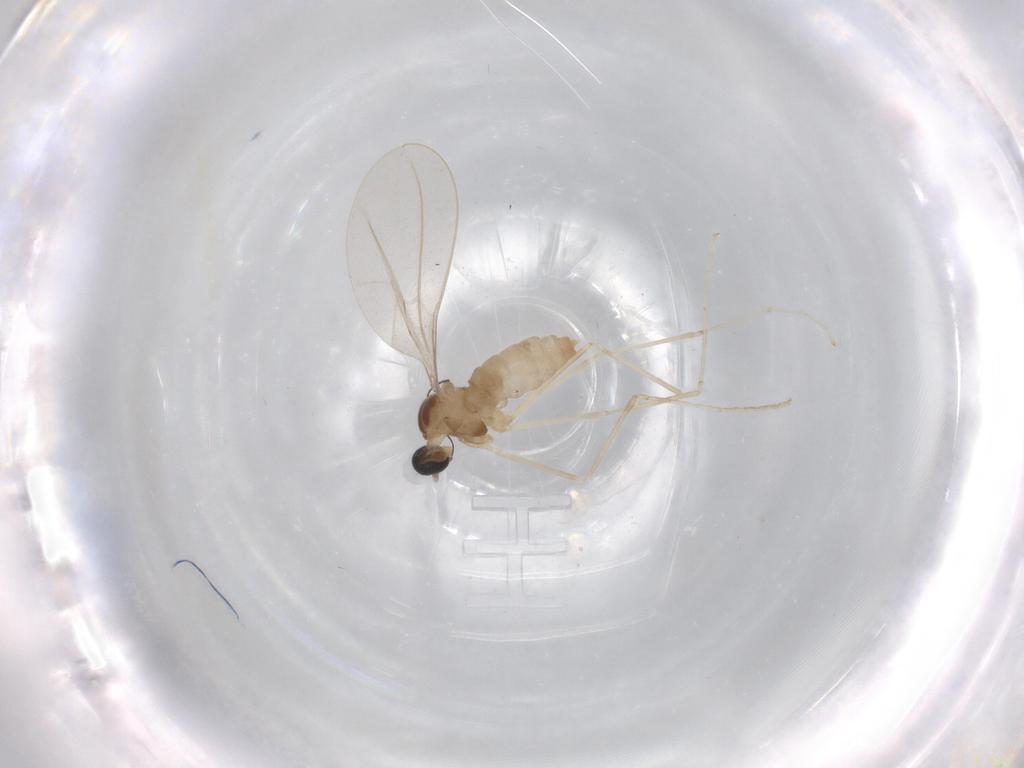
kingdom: Animalia
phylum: Arthropoda
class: Insecta
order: Diptera
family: Cecidomyiidae
